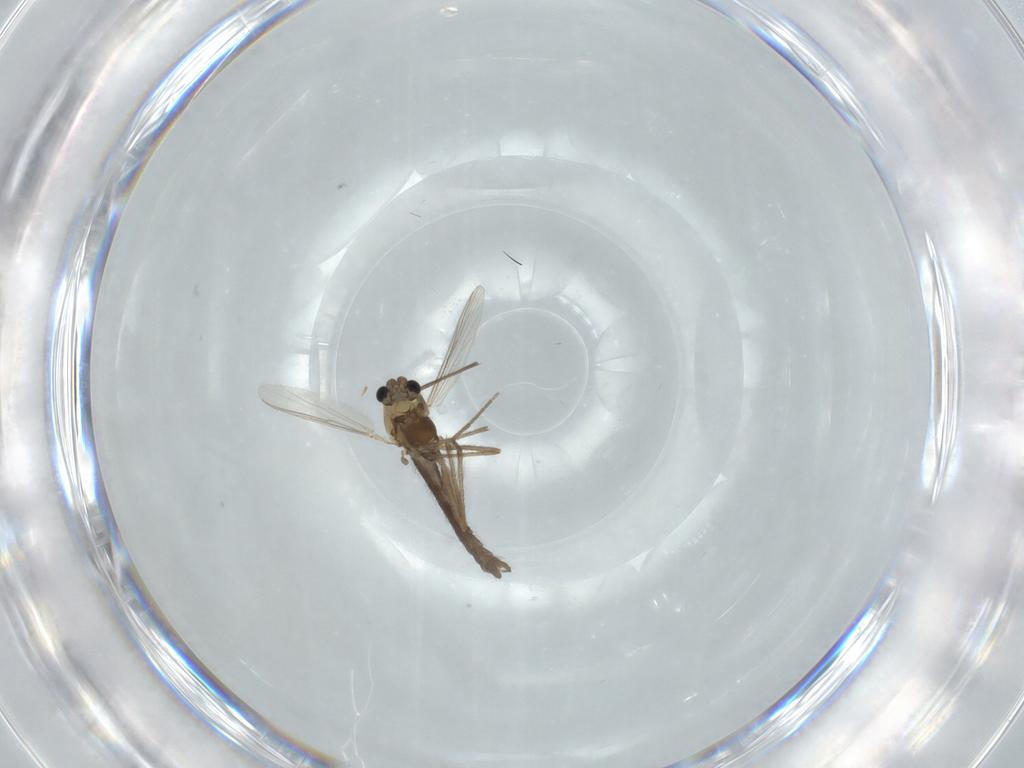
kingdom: Animalia
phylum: Arthropoda
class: Insecta
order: Diptera
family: Chironomidae
